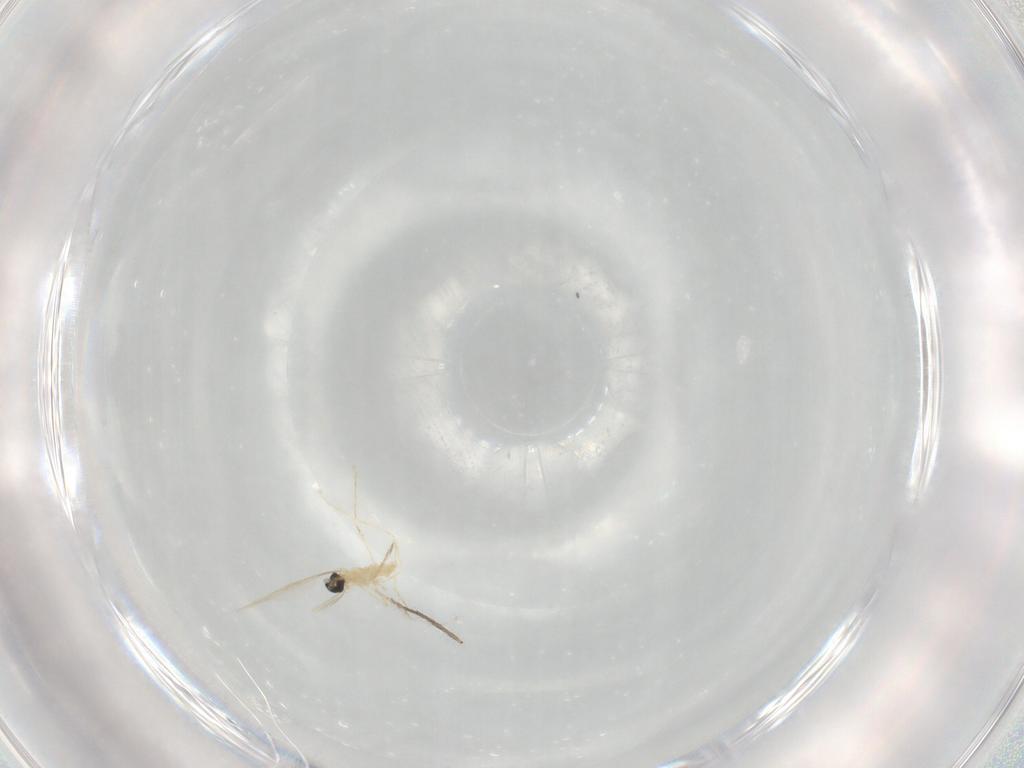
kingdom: Animalia
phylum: Arthropoda
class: Insecta
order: Diptera
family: Cecidomyiidae
